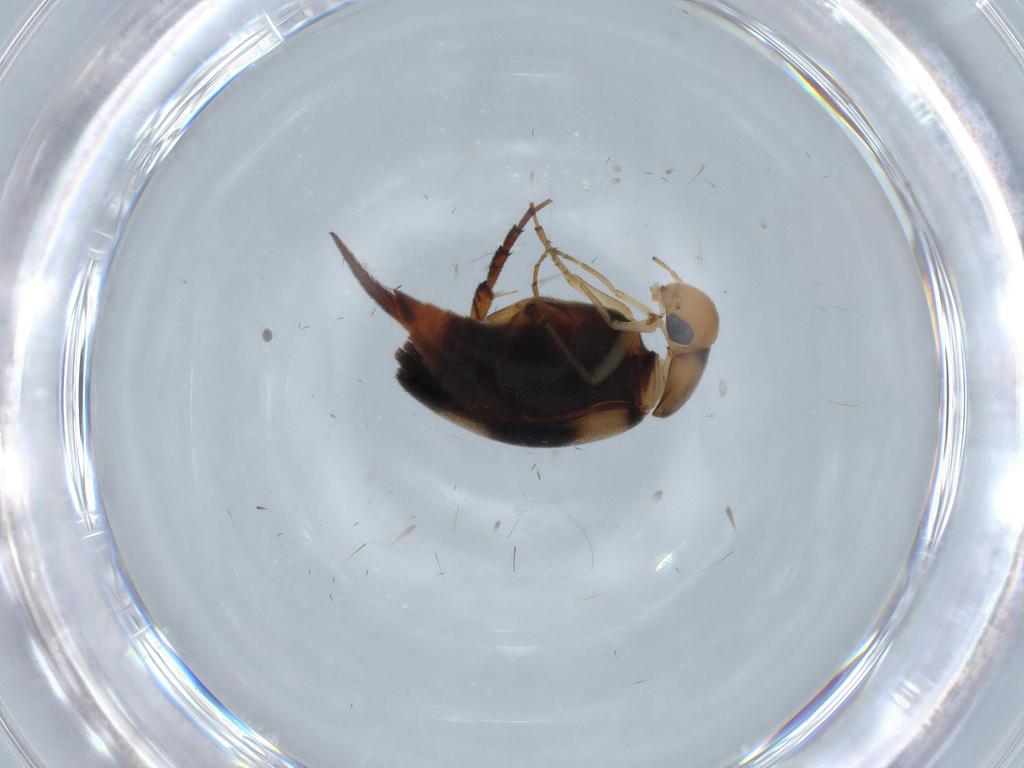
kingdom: Animalia
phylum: Arthropoda
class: Insecta
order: Coleoptera
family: Mordellidae
